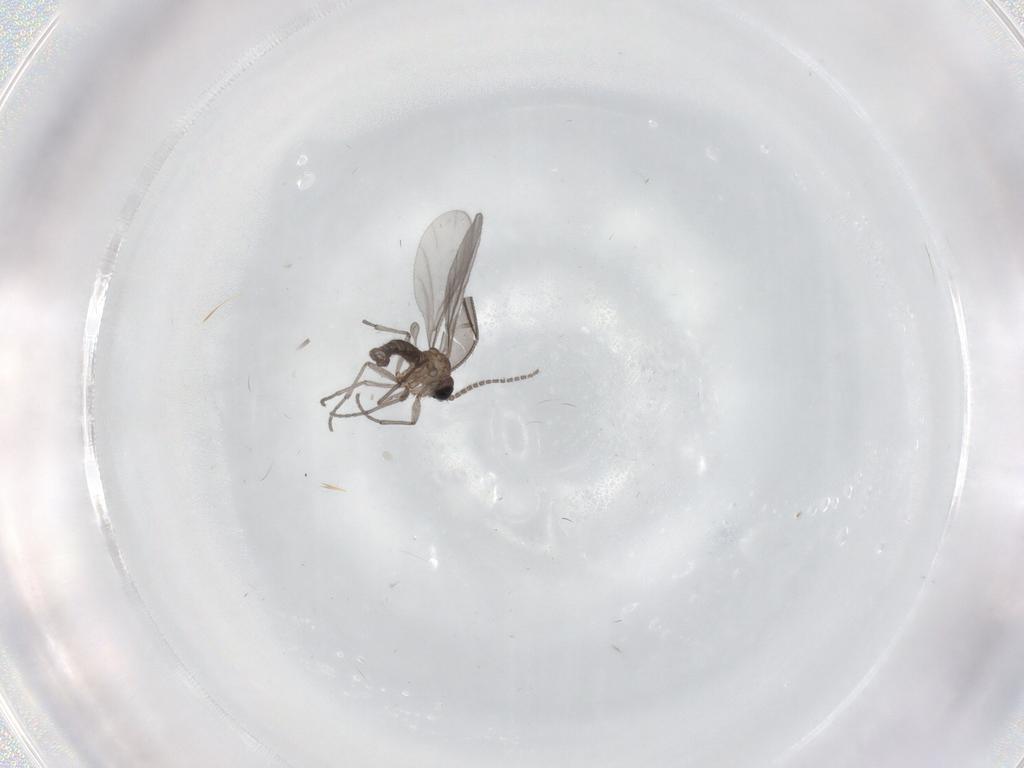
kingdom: Animalia
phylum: Arthropoda
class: Insecta
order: Diptera
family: Sciaridae
